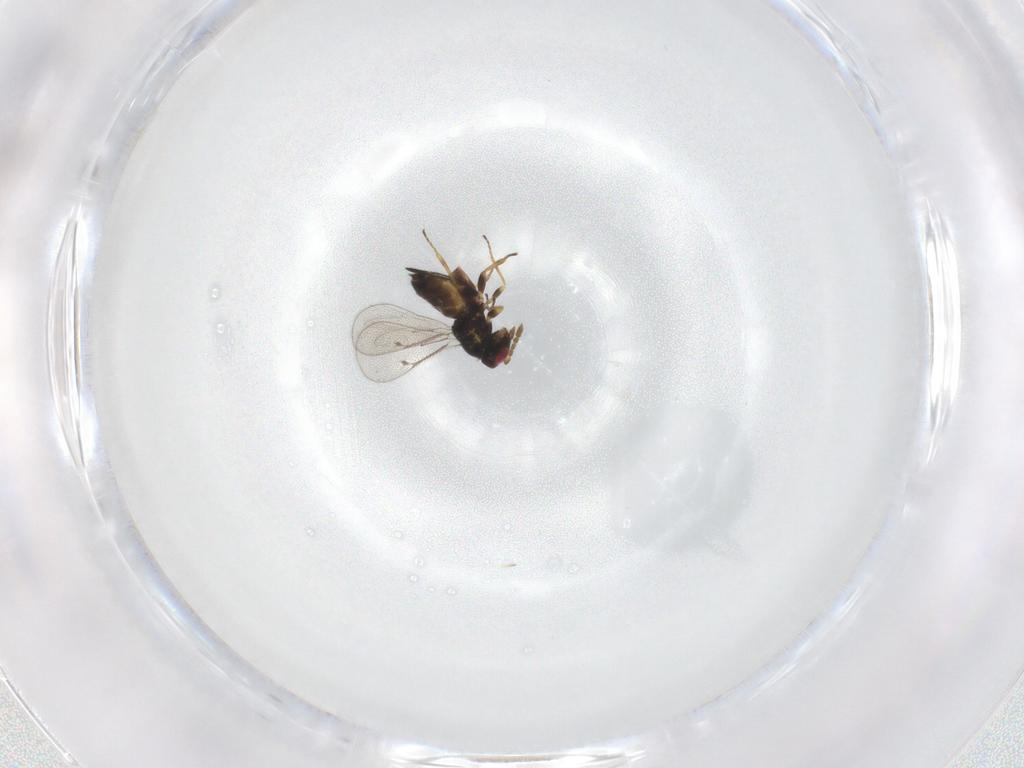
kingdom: Animalia
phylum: Arthropoda
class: Insecta
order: Hymenoptera
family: Eulophidae
